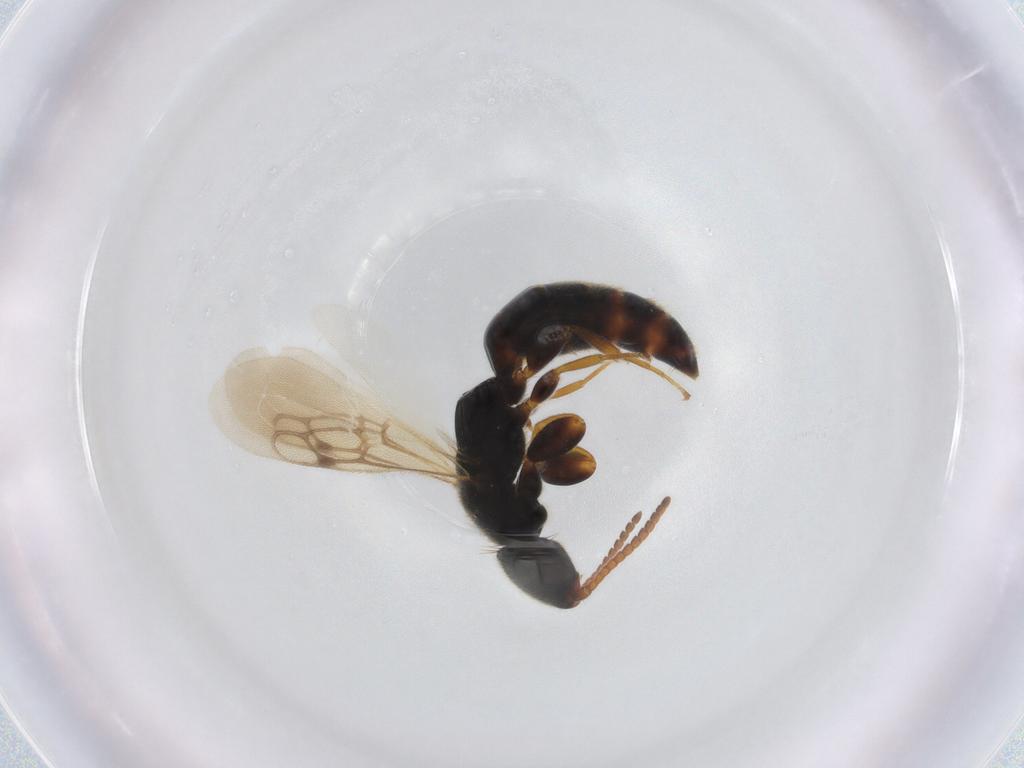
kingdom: Animalia
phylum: Arthropoda
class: Insecta
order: Hymenoptera
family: Bethylidae
